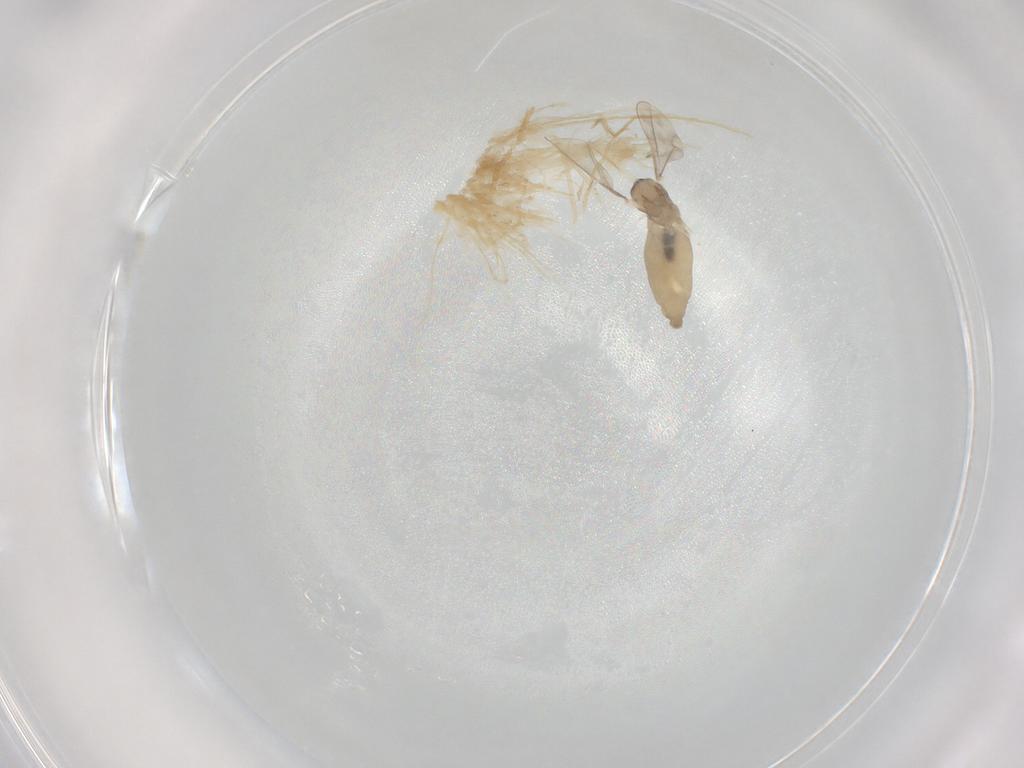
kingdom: Animalia
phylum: Arthropoda
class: Insecta
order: Diptera
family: Cecidomyiidae
